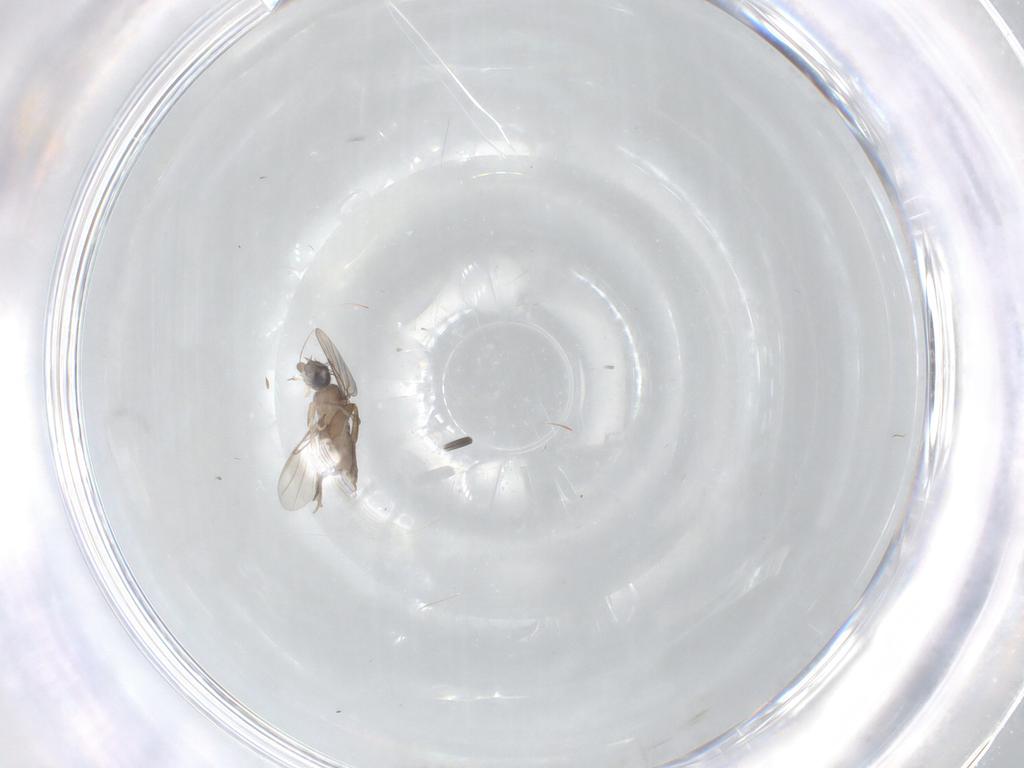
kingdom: Animalia
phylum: Arthropoda
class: Insecta
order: Diptera
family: Phoridae
